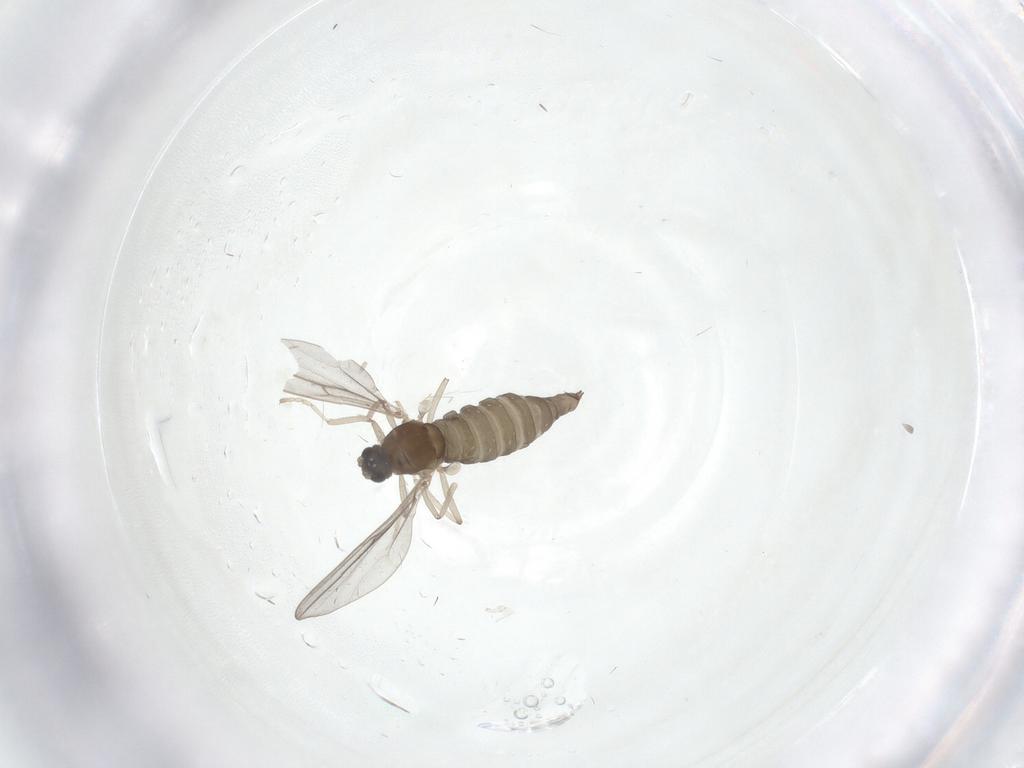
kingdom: Animalia
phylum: Arthropoda
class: Insecta
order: Diptera
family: Cecidomyiidae
